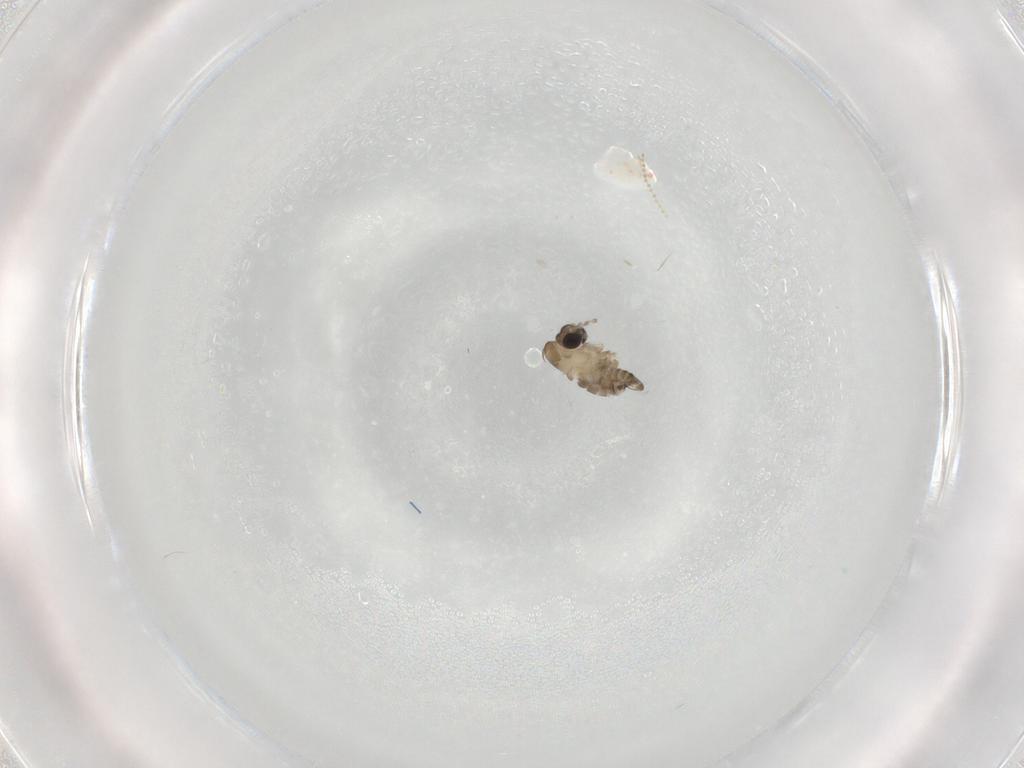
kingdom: Animalia
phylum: Arthropoda
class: Insecta
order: Diptera
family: Psychodidae
